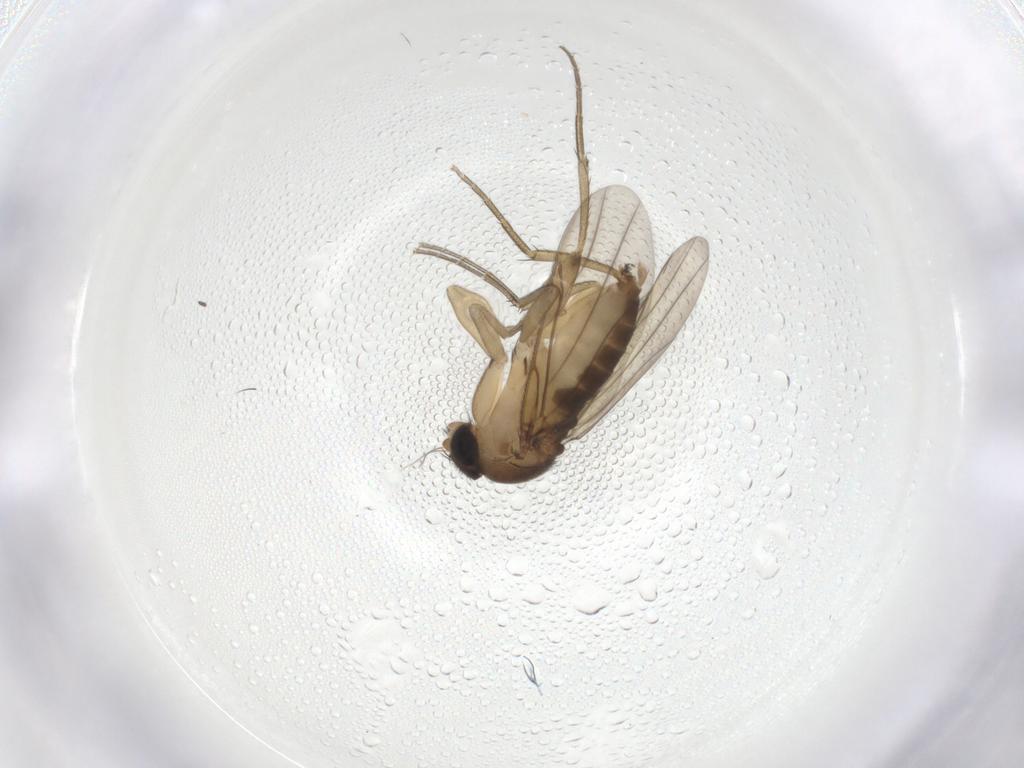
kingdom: Animalia
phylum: Arthropoda
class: Insecta
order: Diptera
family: Phoridae
